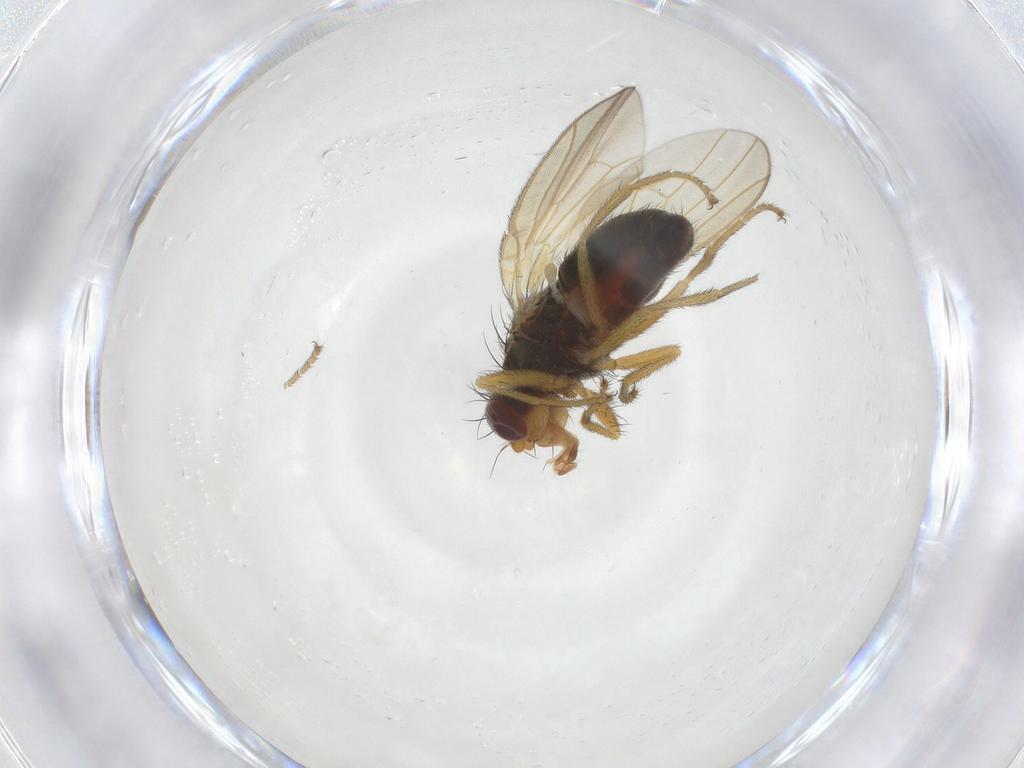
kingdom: Animalia
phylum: Arthropoda
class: Insecta
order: Diptera
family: Heleomyzidae
